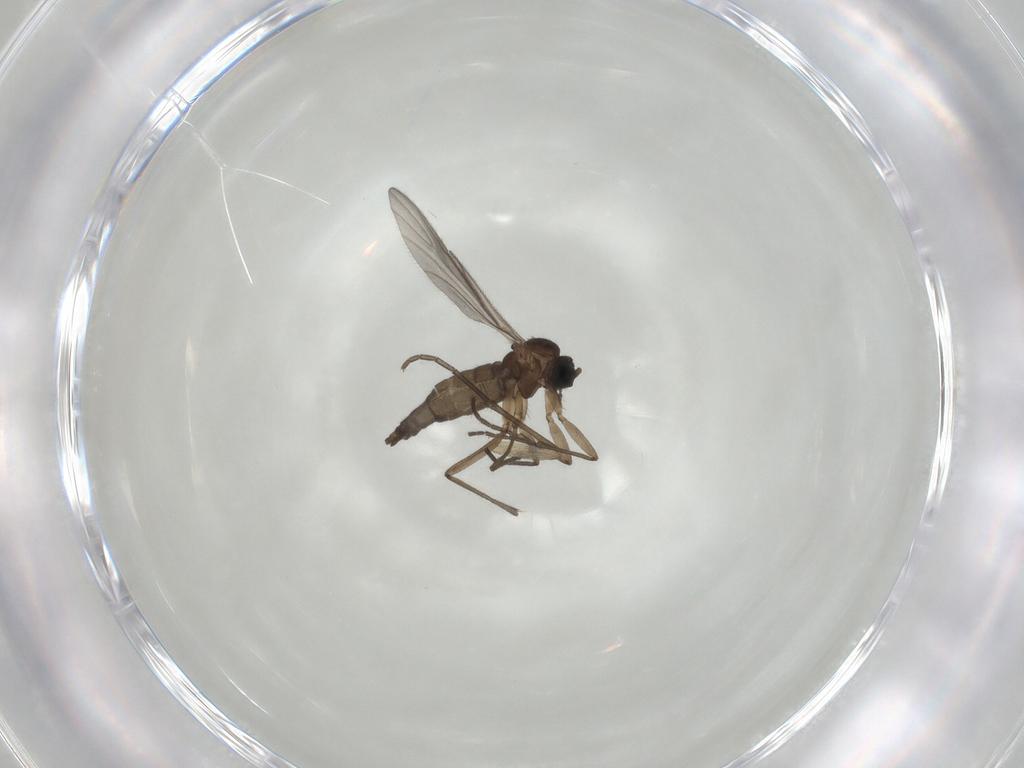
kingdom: Animalia
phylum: Arthropoda
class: Insecta
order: Diptera
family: Sciaridae
